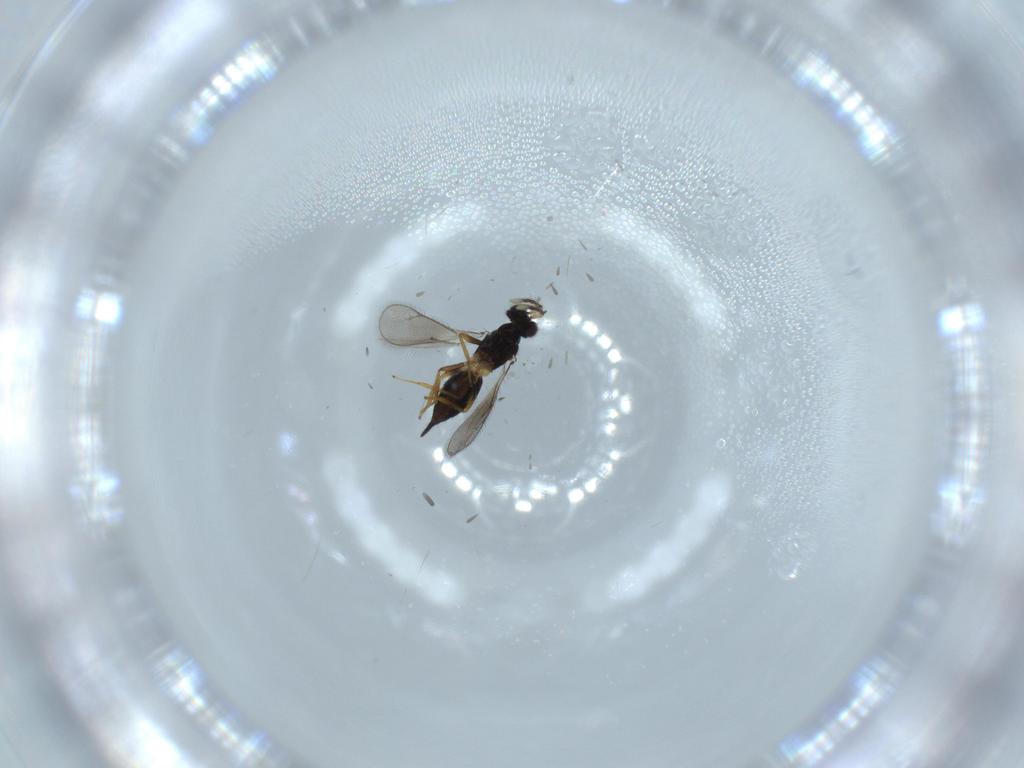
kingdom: Animalia
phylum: Arthropoda
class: Insecta
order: Hymenoptera
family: Eulophidae
